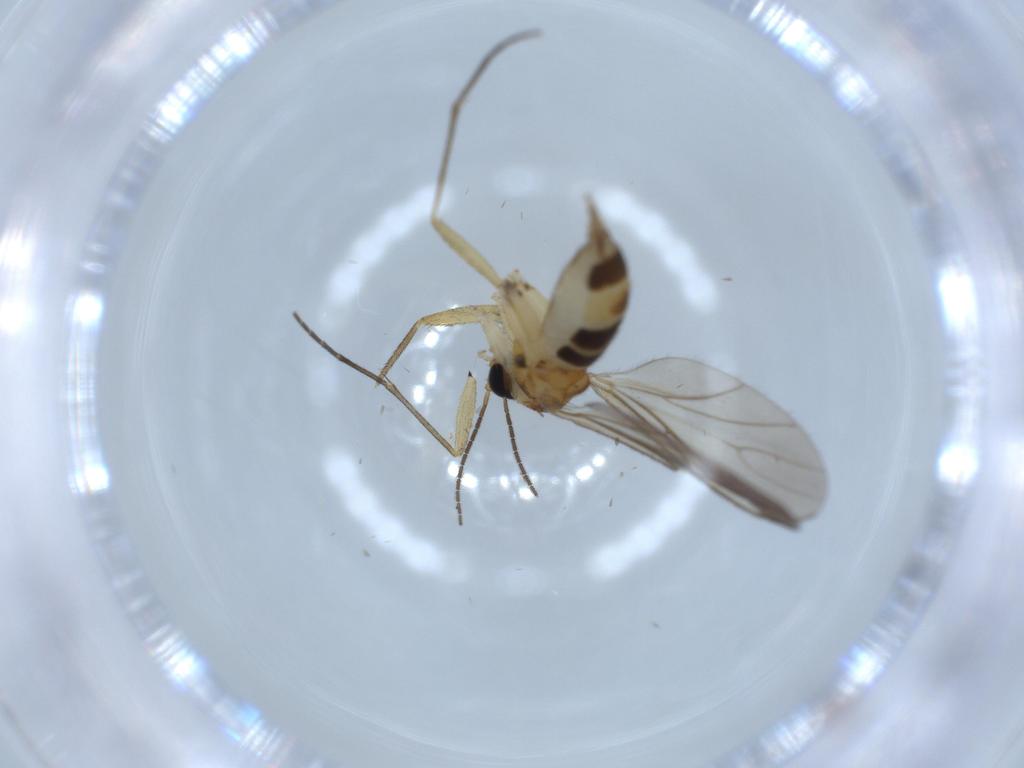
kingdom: Animalia
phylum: Arthropoda
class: Insecta
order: Diptera
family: Sciaridae
